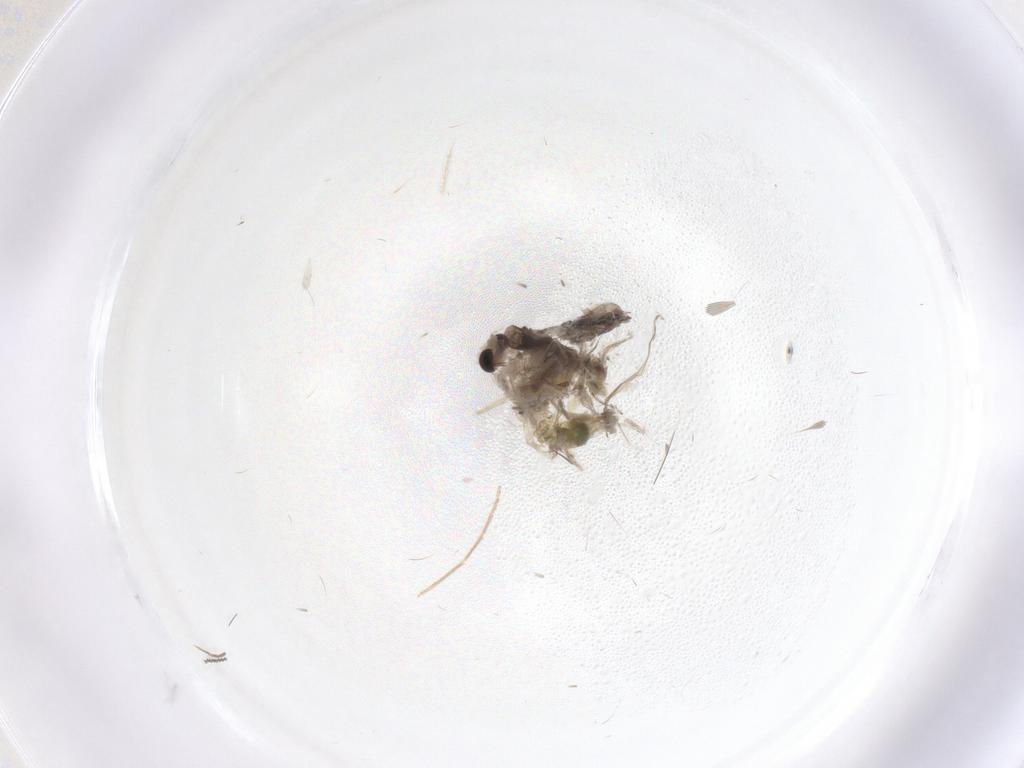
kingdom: Animalia
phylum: Arthropoda
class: Insecta
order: Diptera
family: Cecidomyiidae
